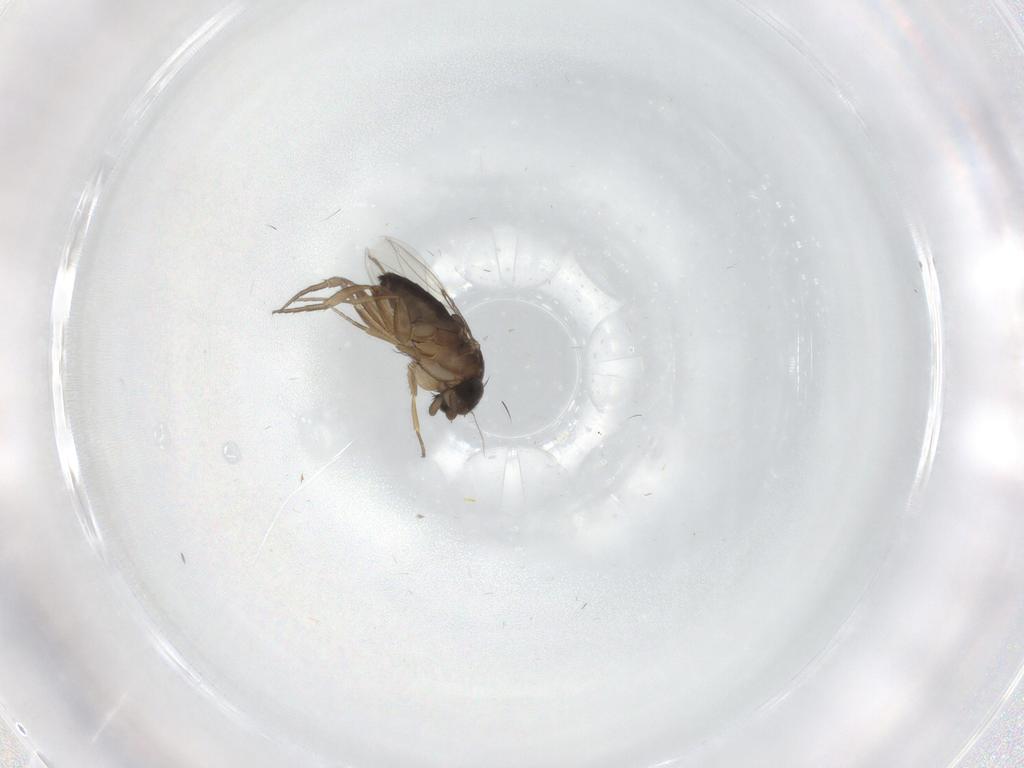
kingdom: Animalia
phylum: Arthropoda
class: Insecta
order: Diptera
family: Phoridae
